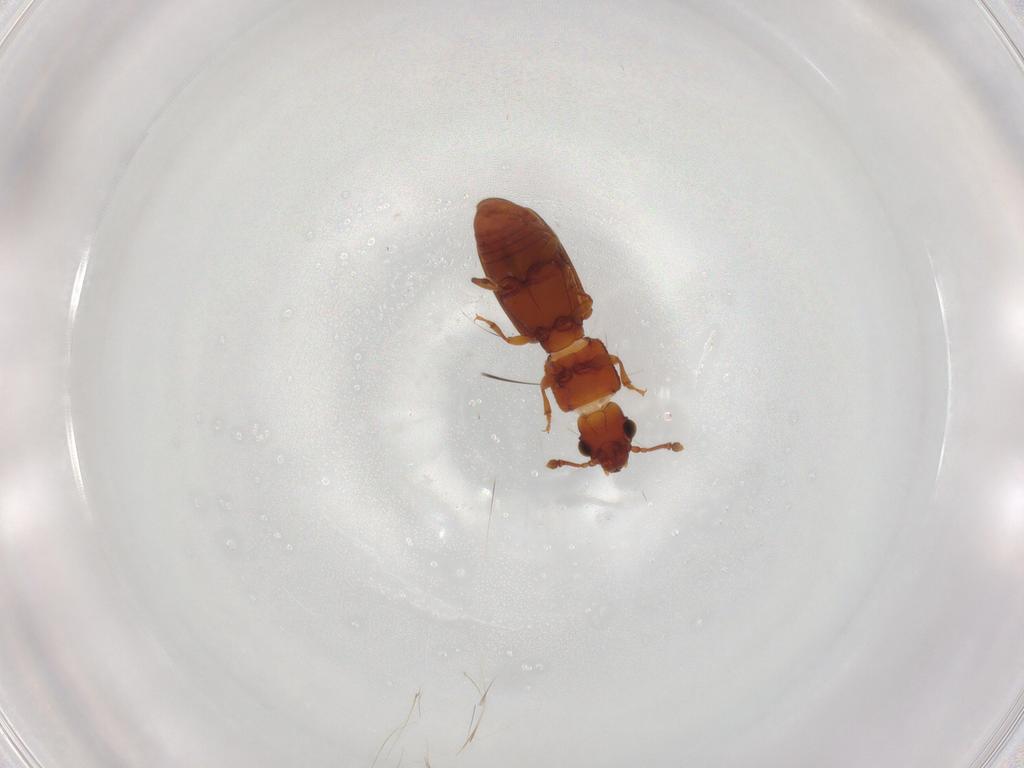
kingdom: Animalia
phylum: Arthropoda
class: Insecta
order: Coleoptera
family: Monotomidae
